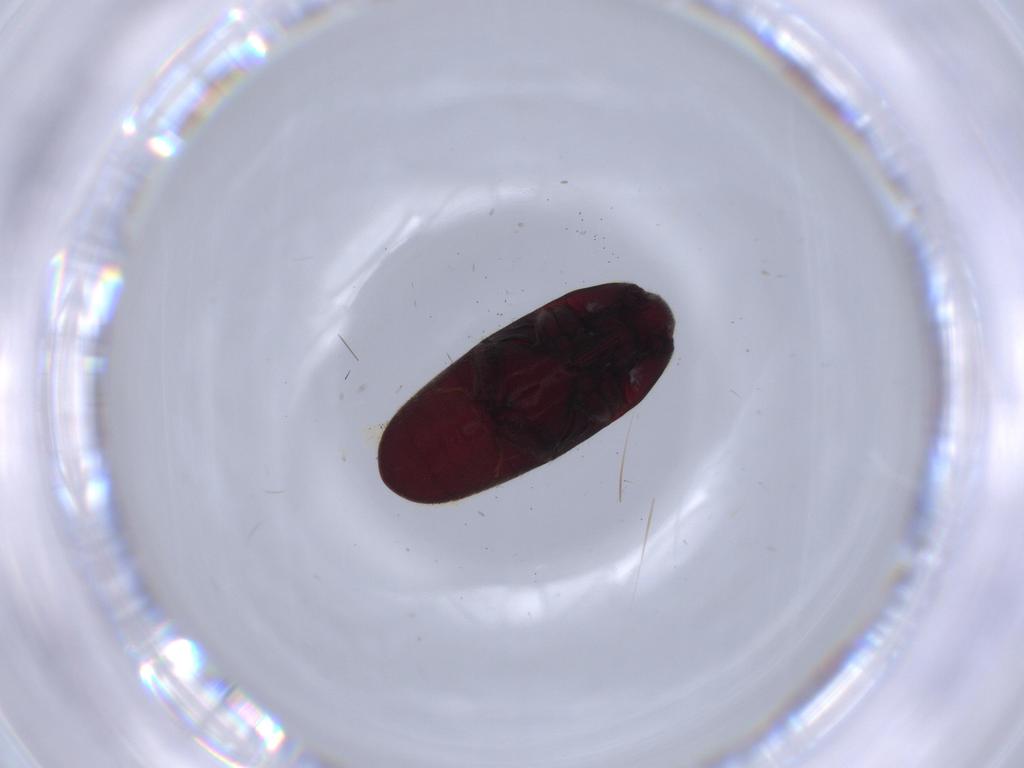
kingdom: Animalia
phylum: Arthropoda
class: Insecta
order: Coleoptera
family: Throscidae
